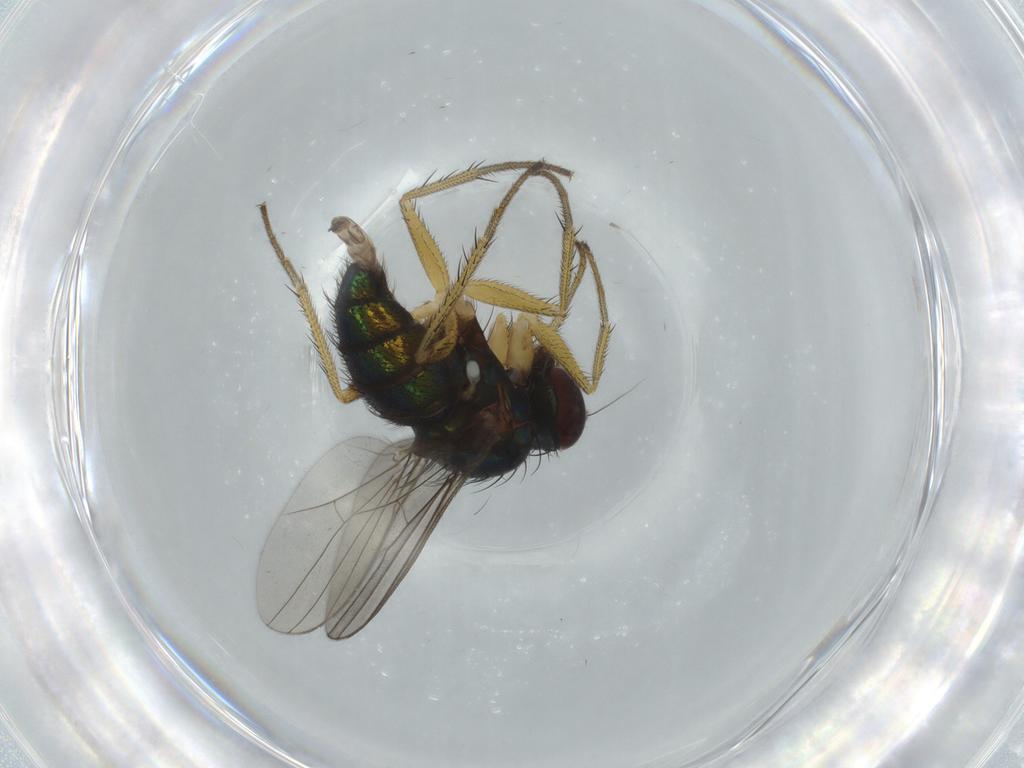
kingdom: Animalia
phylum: Arthropoda
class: Insecta
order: Diptera
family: Dolichopodidae
